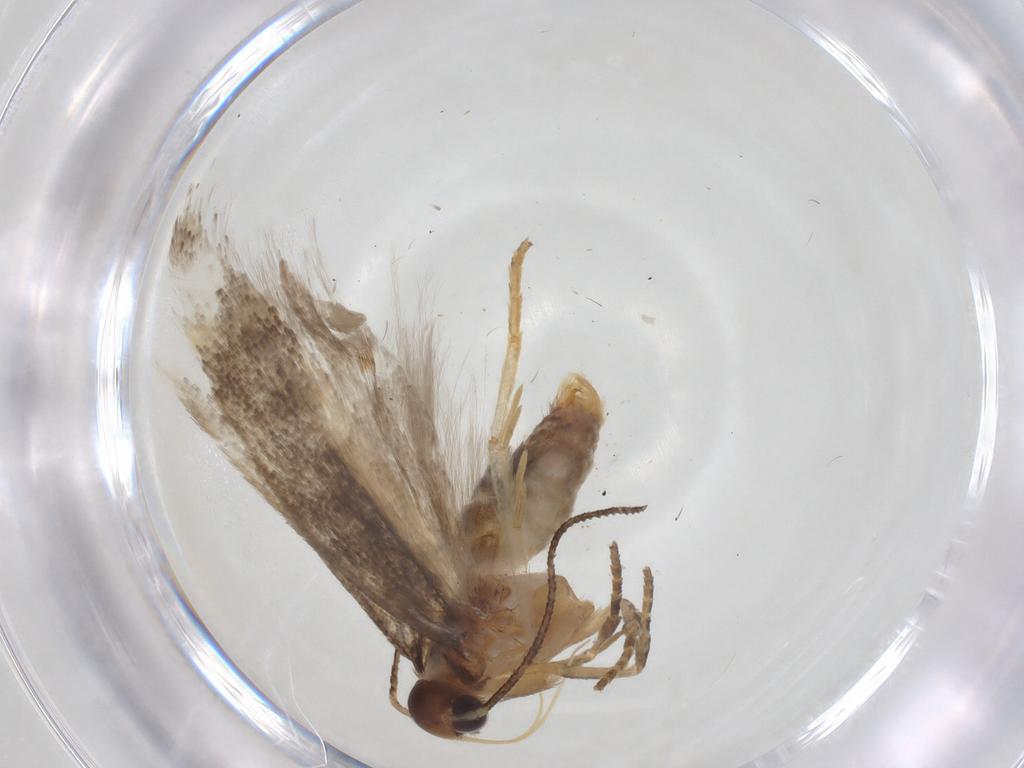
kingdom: Animalia
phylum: Arthropoda
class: Insecta
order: Lepidoptera
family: Gelechiidae
